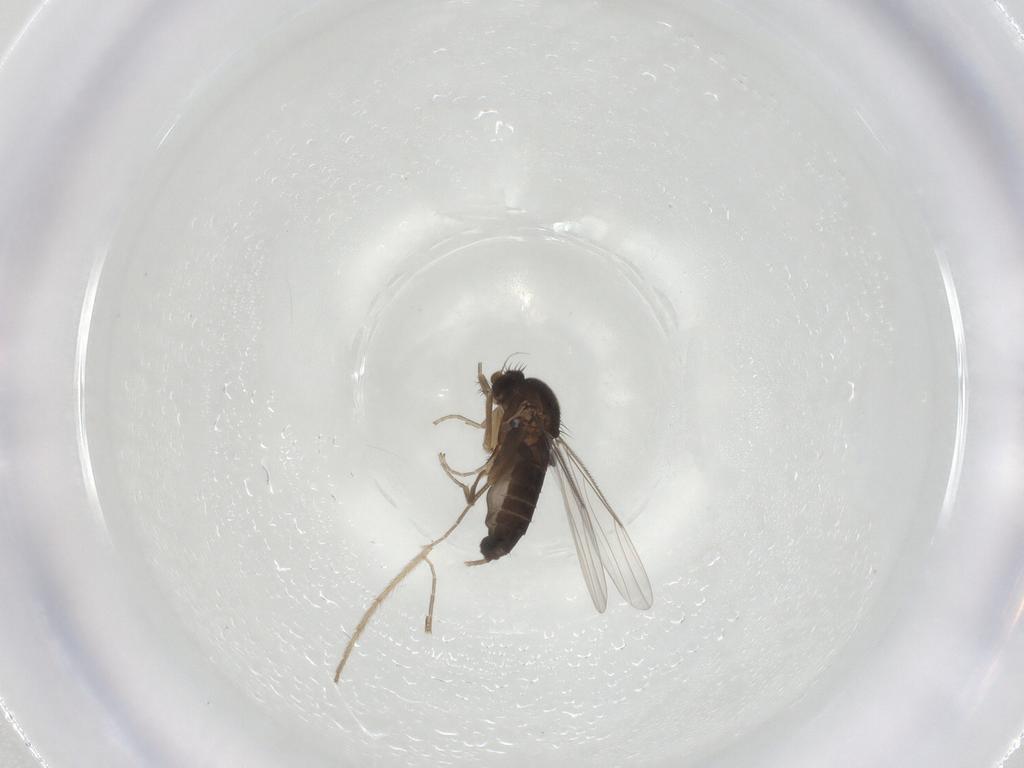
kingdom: Animalia
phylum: Arthropoda
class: Insecta
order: Diptera
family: Phoridae
